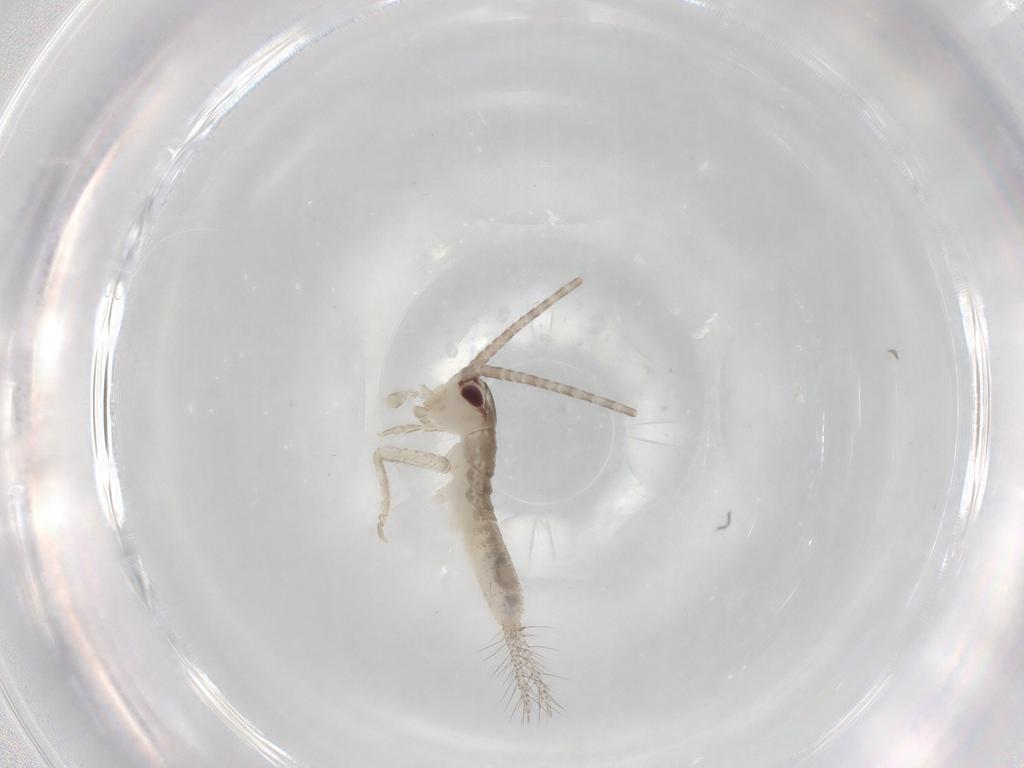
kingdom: Animalia
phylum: Arthropoda
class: Insecta
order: Orthoptera
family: Gryllidae
